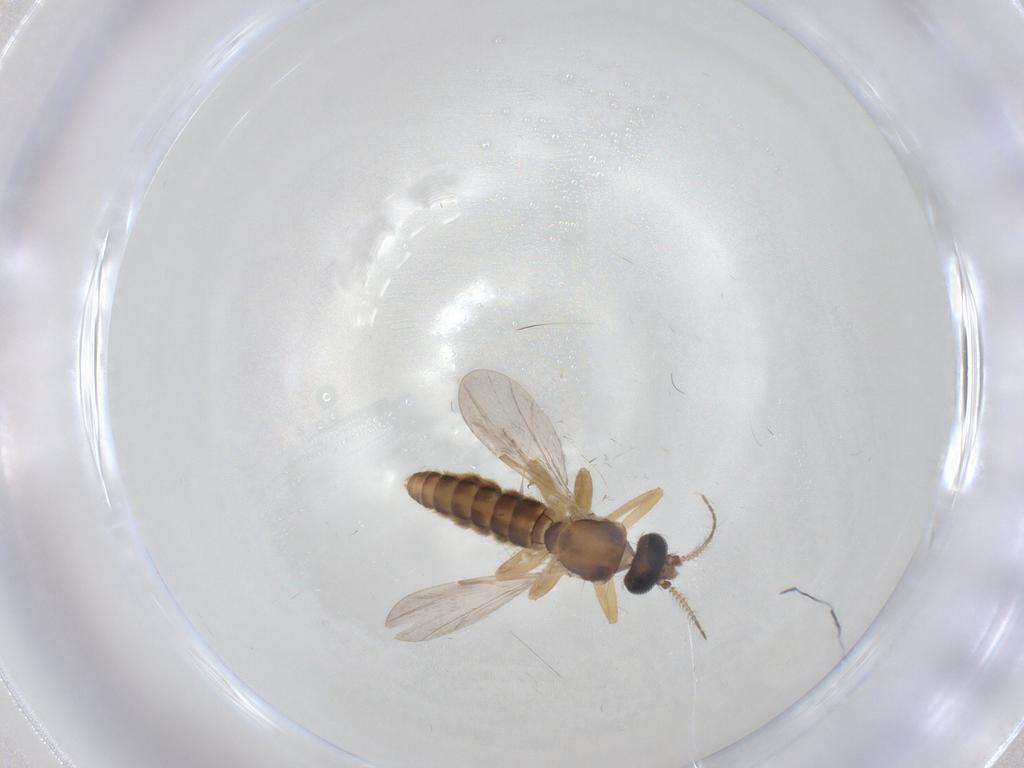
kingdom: Animalia
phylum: Arthropoda
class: Insecta
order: Diptera
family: Ceratopogonidae
